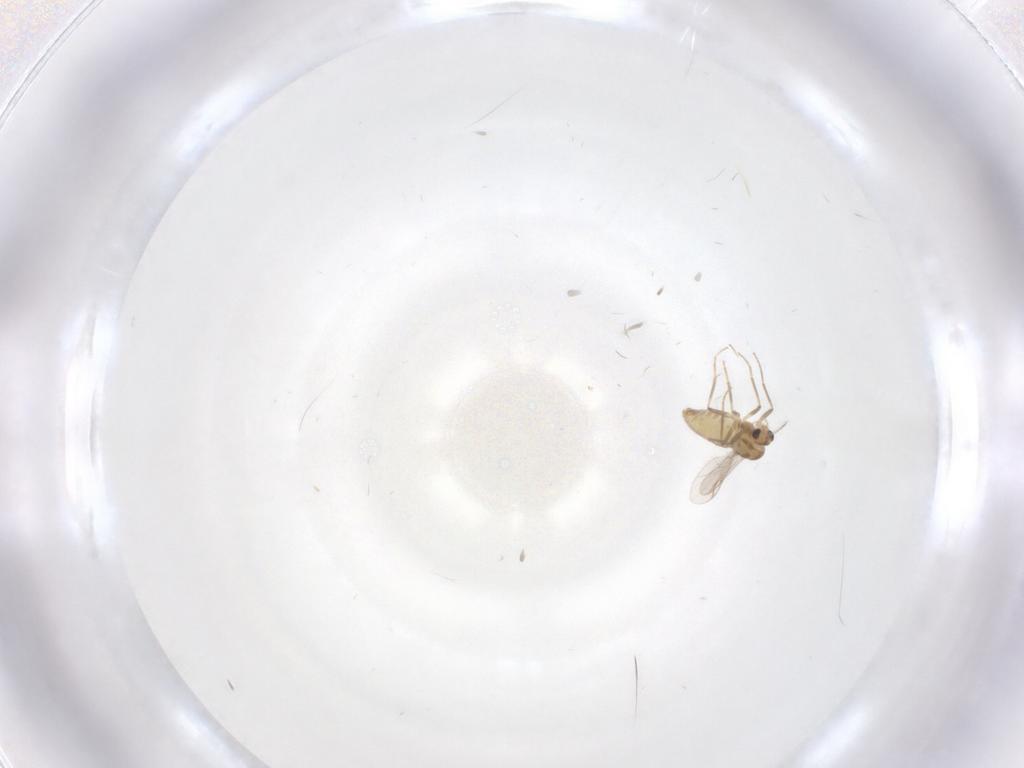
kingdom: Animalia
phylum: Arthropoda
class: Insecta
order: Diptera
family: Chironomidae
